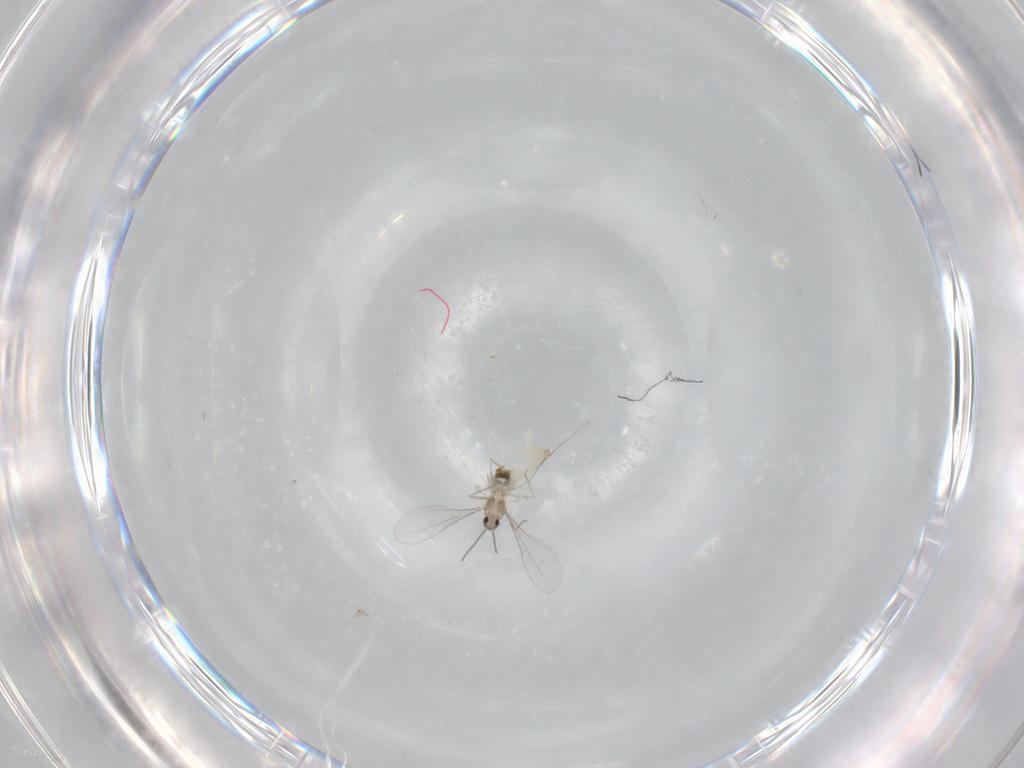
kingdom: Animalia
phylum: Arthropoda
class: Insecta
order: Diptera
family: Cecidomyiidae
